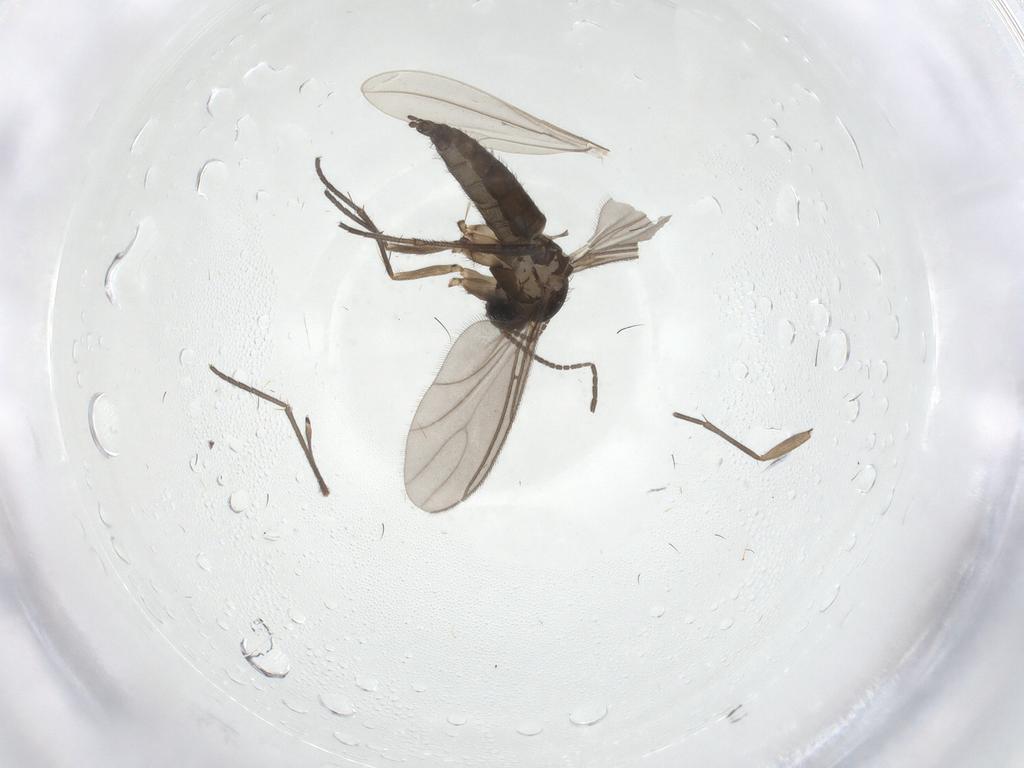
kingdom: Animalia
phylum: Arthropoda
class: Insecta
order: Diptera
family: Sciaridae
